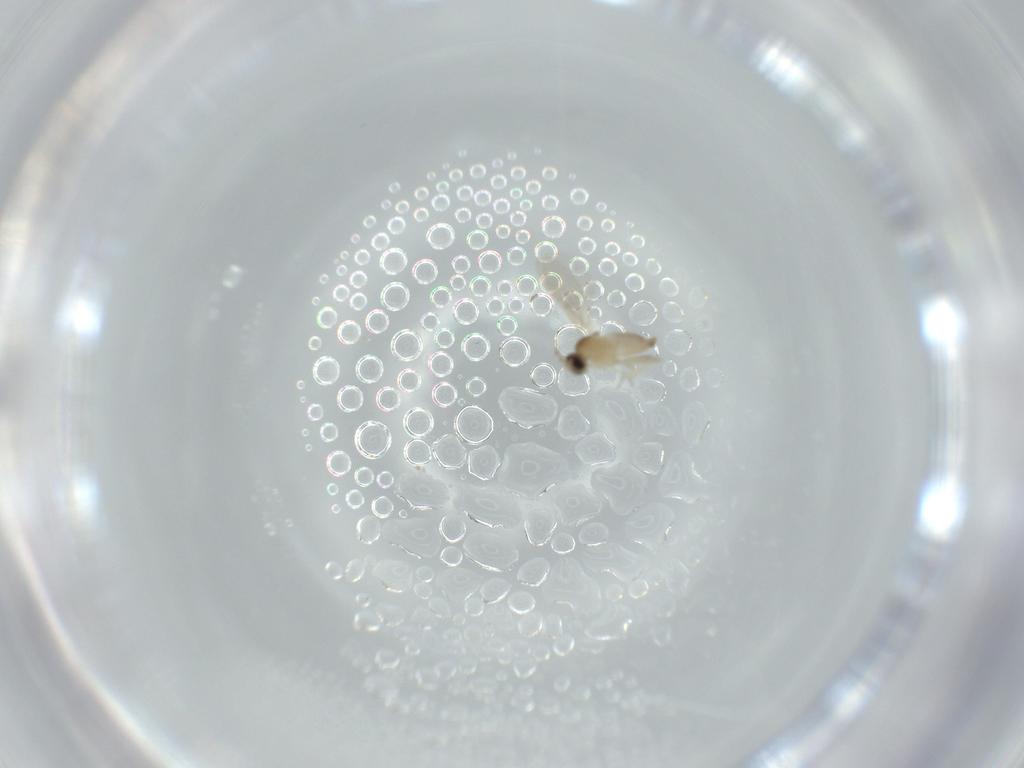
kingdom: Animalia
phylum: Arthropoda
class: Insecta
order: Diptera
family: Cecidomyiidae
